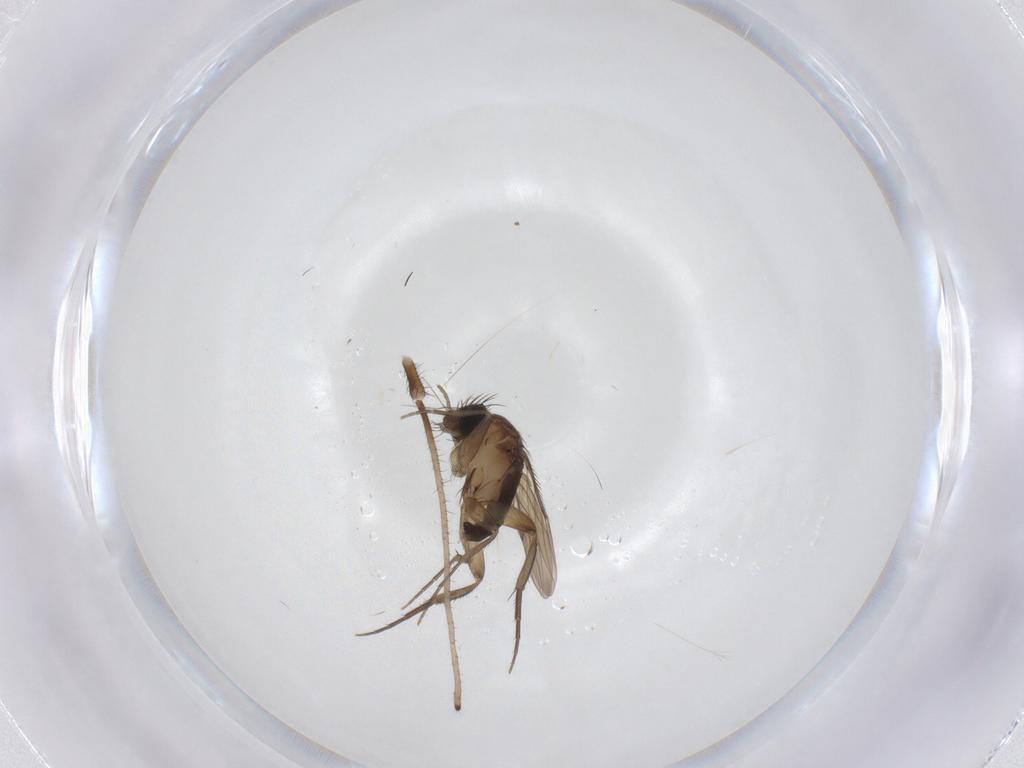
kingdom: Animalia
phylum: Arthropoda
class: Insecta
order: Diptera
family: Phoridae
